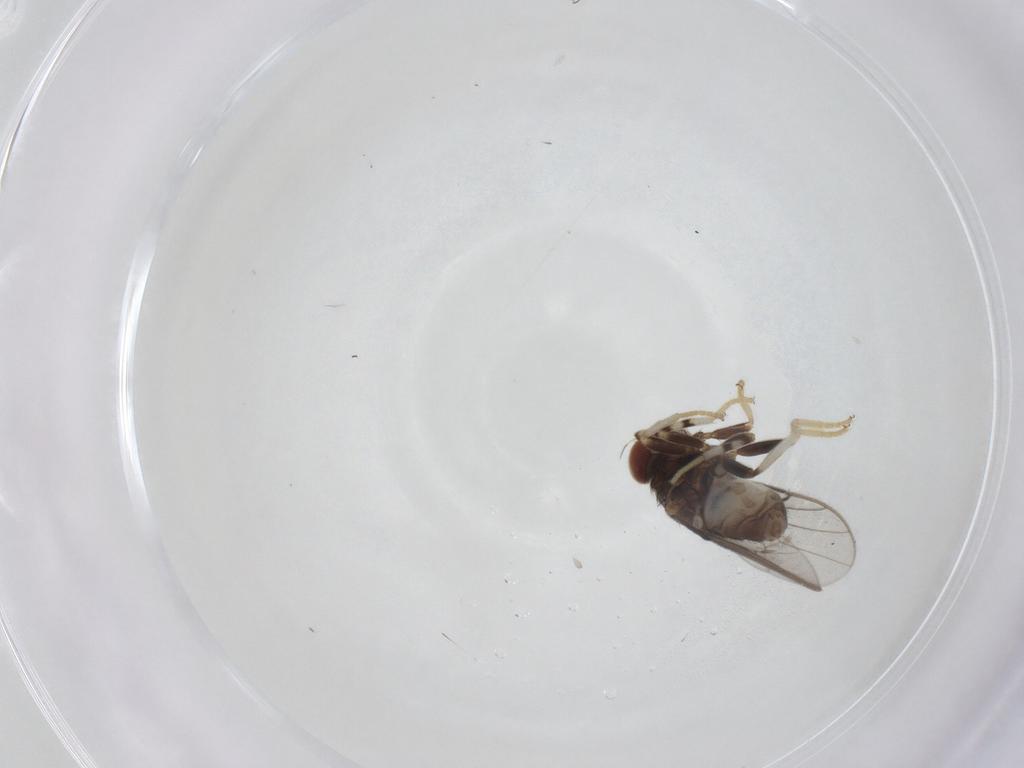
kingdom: Animalia
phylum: Arthropoda
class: Insecta
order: Diptera
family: Chloropidae
